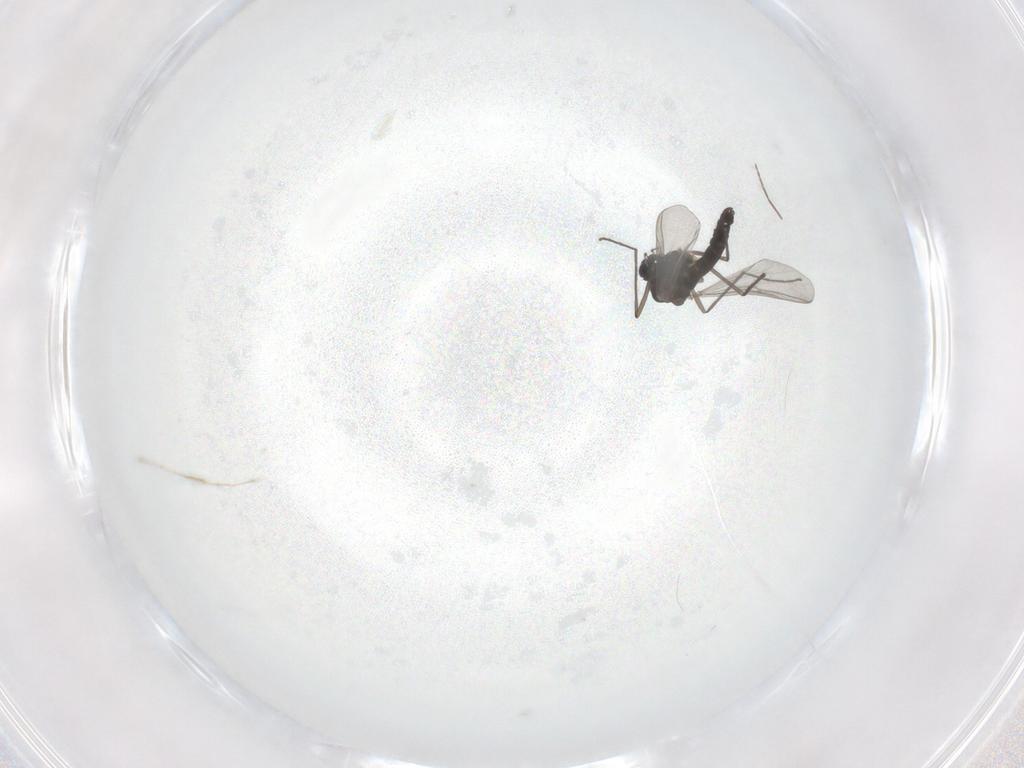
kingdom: Animalia
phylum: Arthropoda
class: Insecta
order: Diptera
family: Chironomidae
